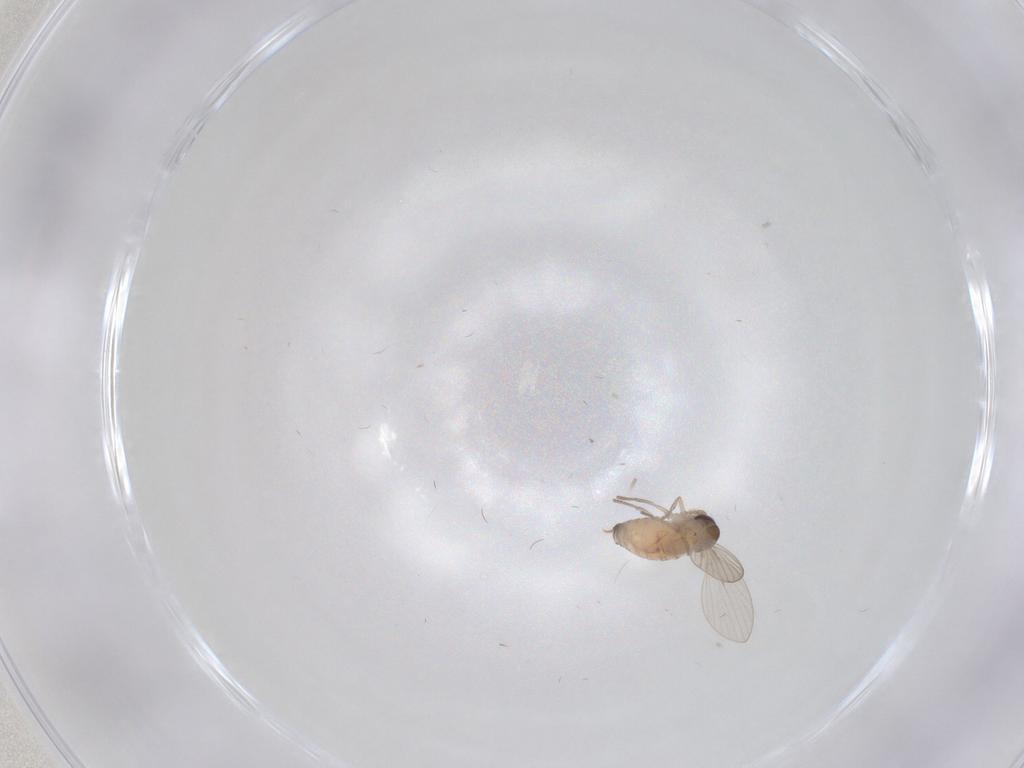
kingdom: Animalia
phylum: Arthropoda
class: Insecta
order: Diptera
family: Psychodidae
